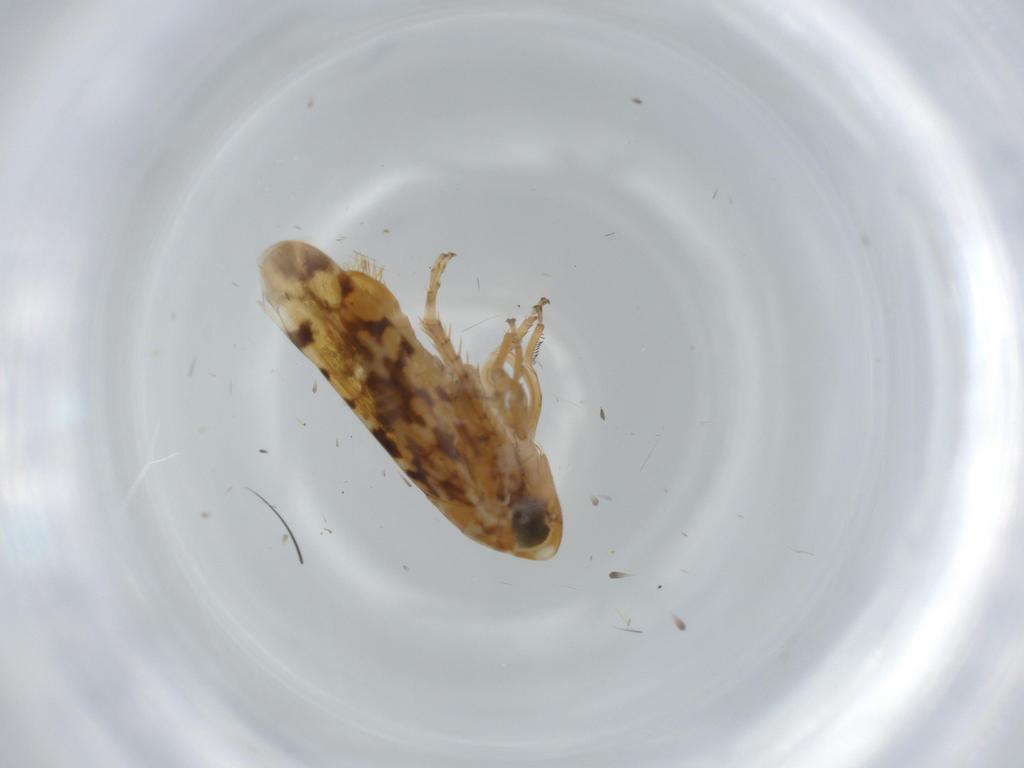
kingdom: Animalia
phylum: Arthropoda
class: Insecta
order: Hemiptera
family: Cicadellidae
